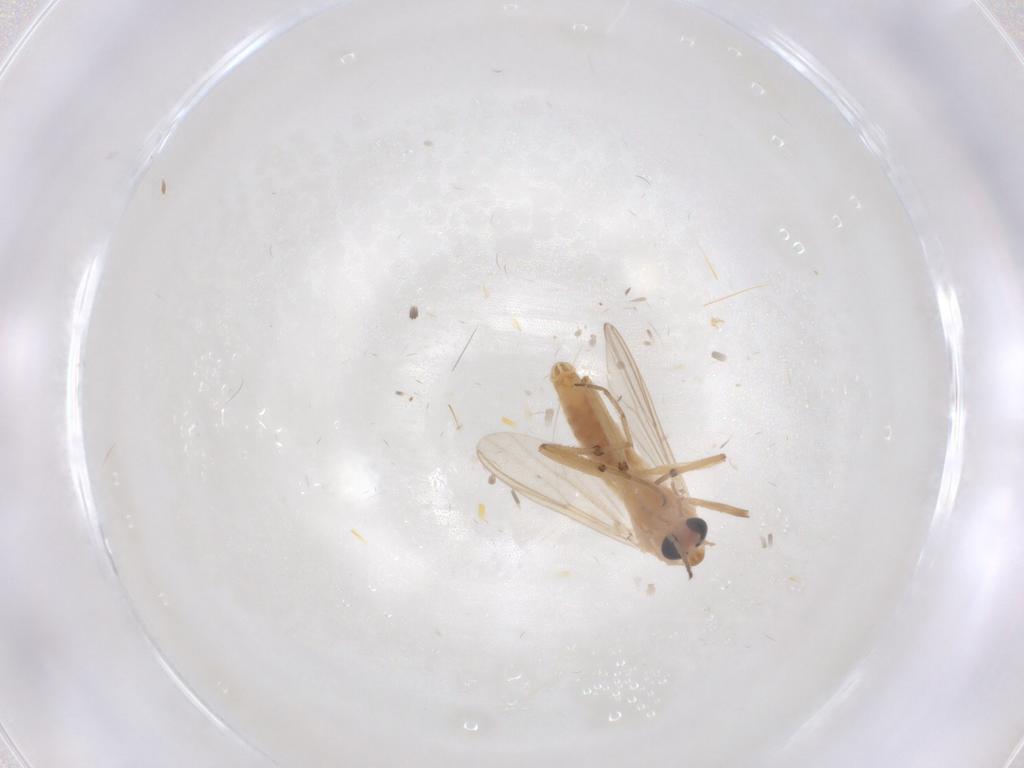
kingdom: Animalia
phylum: Arthropoda
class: Insecta
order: Diptera
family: Chironomidae
